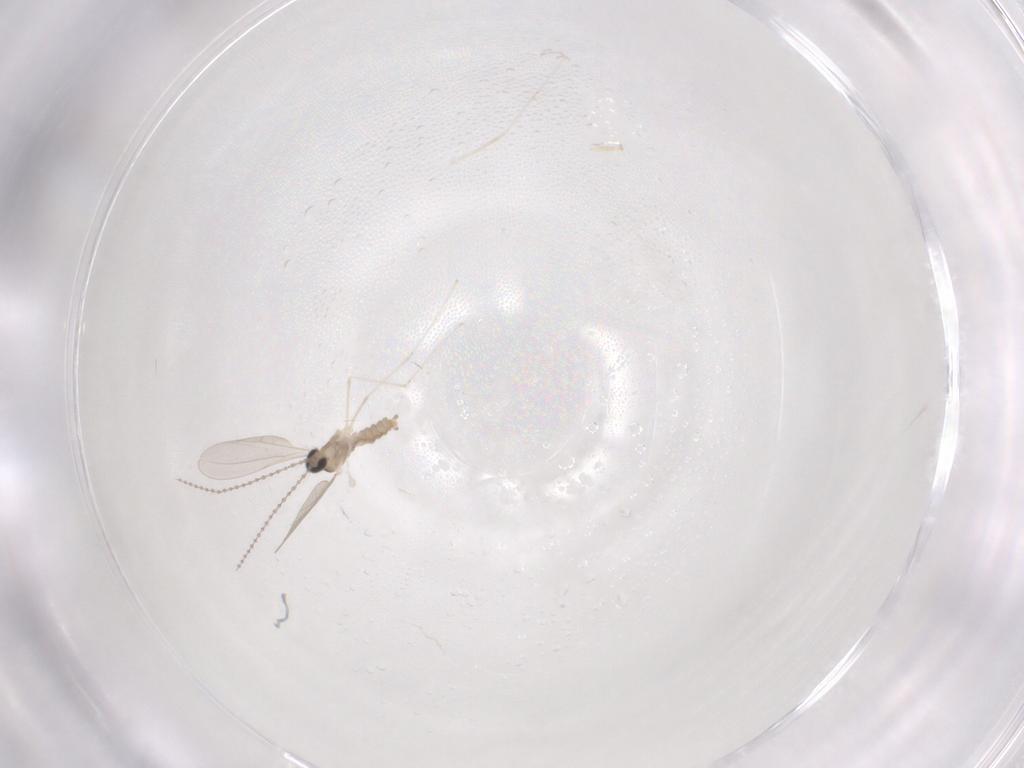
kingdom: Animalia
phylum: Arthropoda
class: Insecta
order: Diptera
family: Cecidomyiidae
